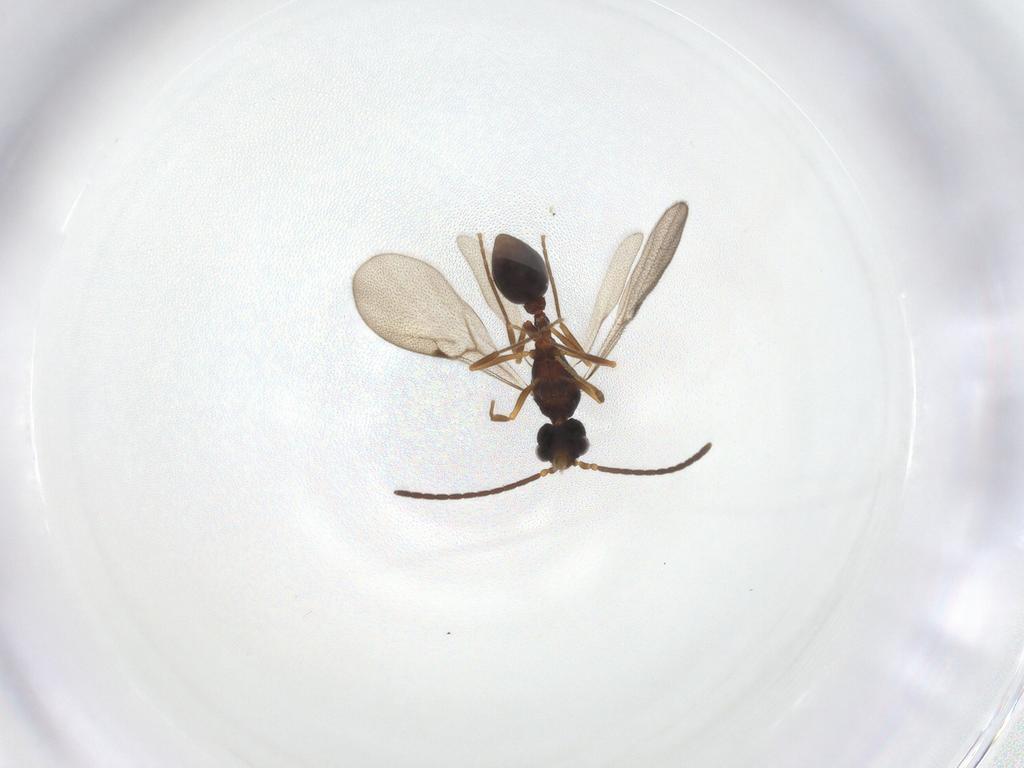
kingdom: Animalia
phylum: Arthropoda
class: Insecta
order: Hymenoptera
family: Formicidae
